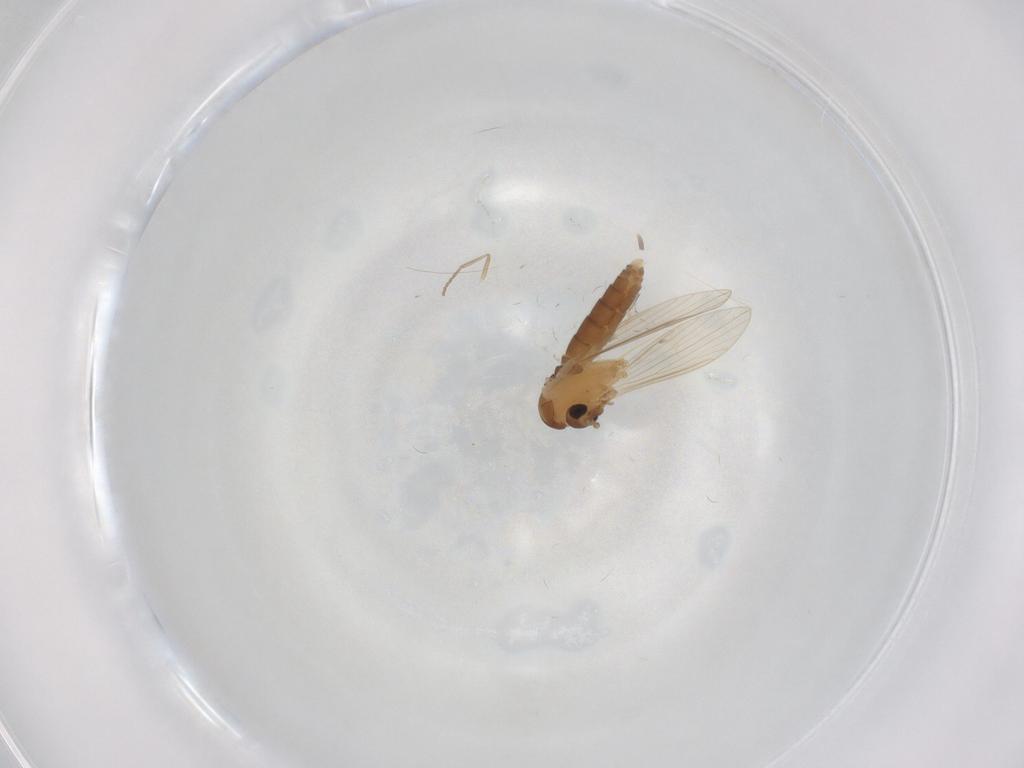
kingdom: Animalia
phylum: Arthropoda
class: Insecta
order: Diptera
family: Psychodidae
